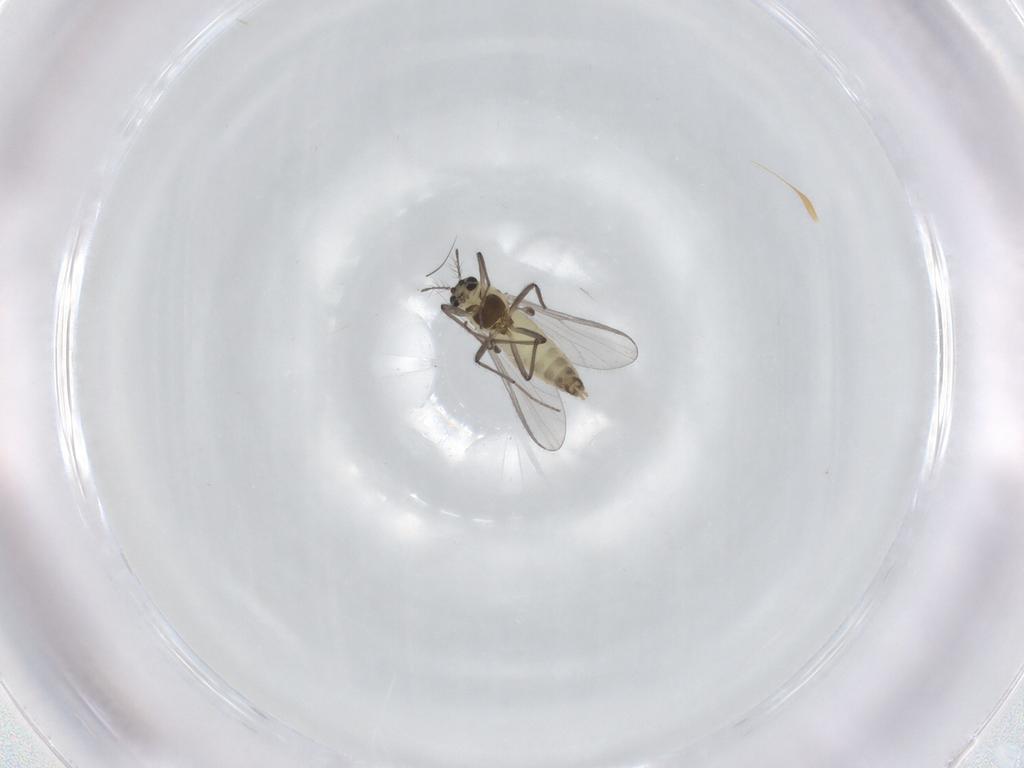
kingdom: Animalia
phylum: Arthropoda
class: Insecta
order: Diptera
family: Chironomidae
